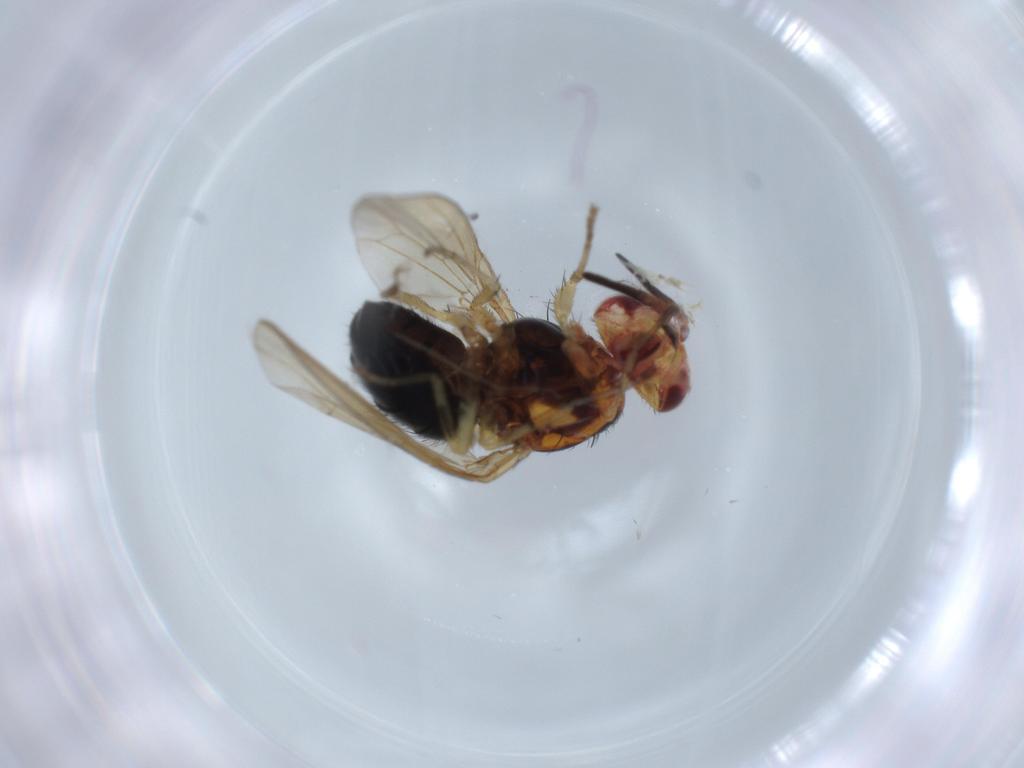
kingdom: Animalia
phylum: Arthropoda
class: Insecta
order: Diptera
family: Lauxaniidae
